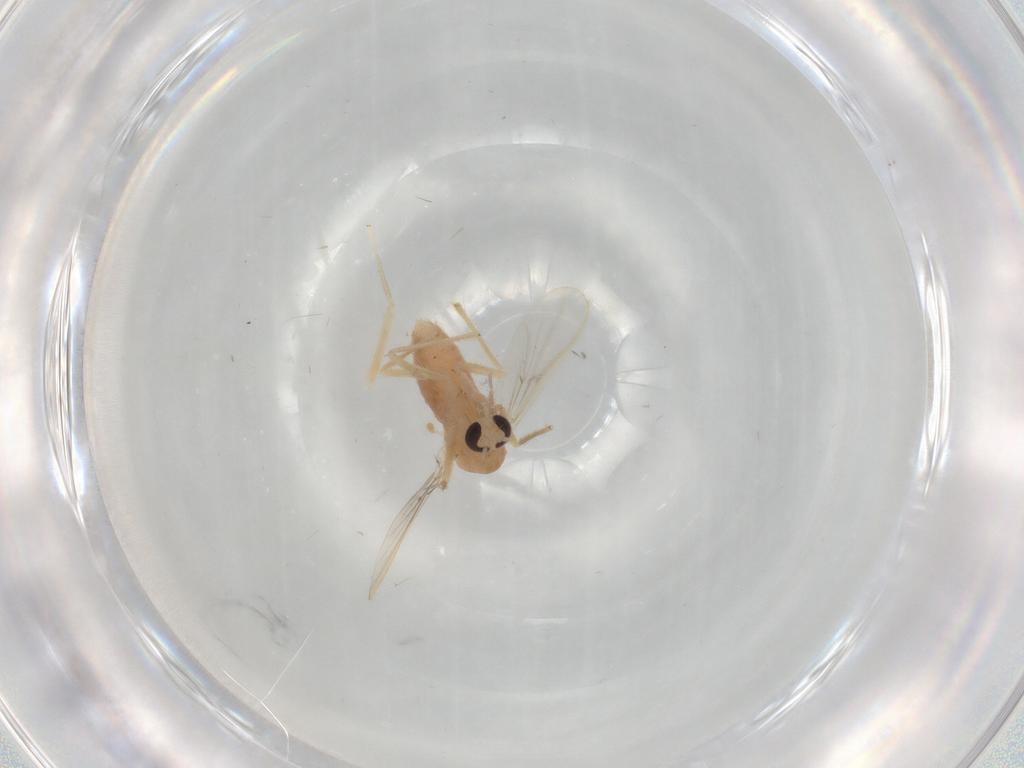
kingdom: Animalia
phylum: Arthropoda
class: Insecta
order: Diptera
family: Chironomidae
